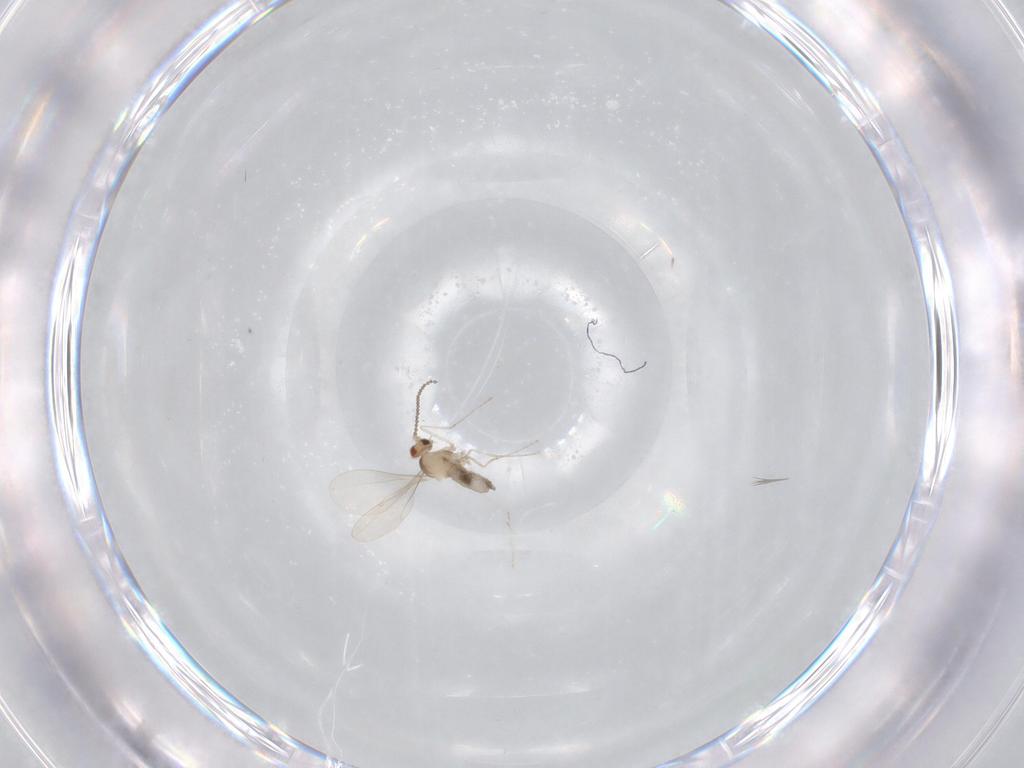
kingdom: Animalia
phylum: Arthropoda
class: Insecta
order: Diptera
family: Cecidomyiidae
